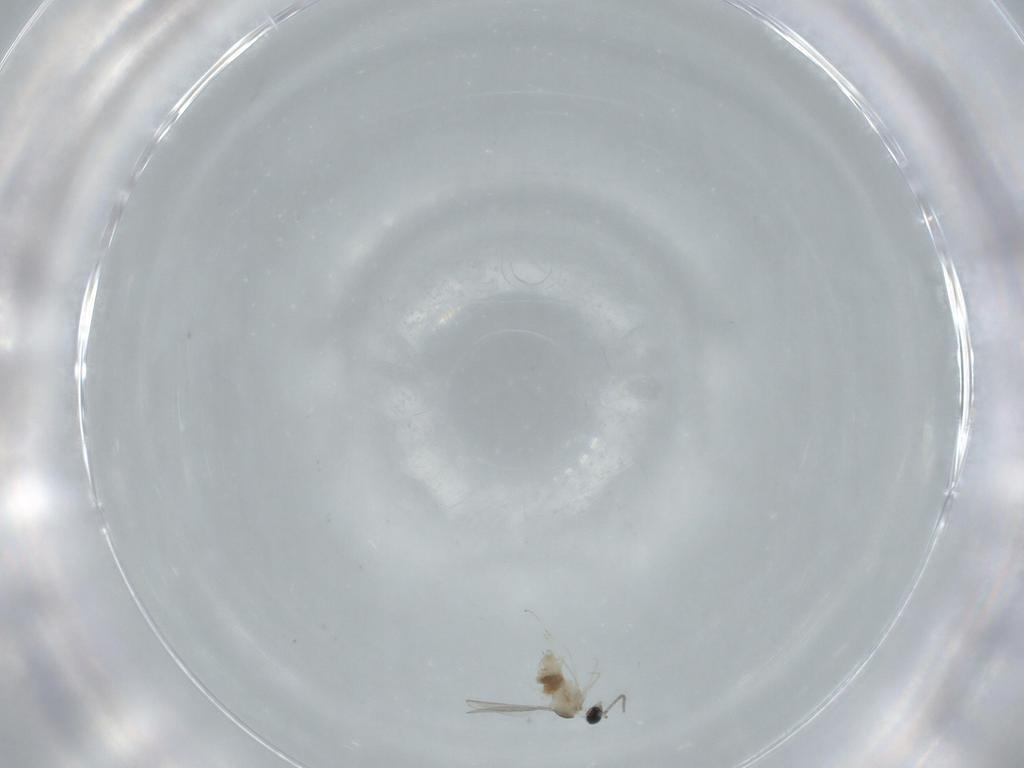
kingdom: Animalia
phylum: Arthropoda
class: Insecta
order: Diptera
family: Cecidomyiidae
